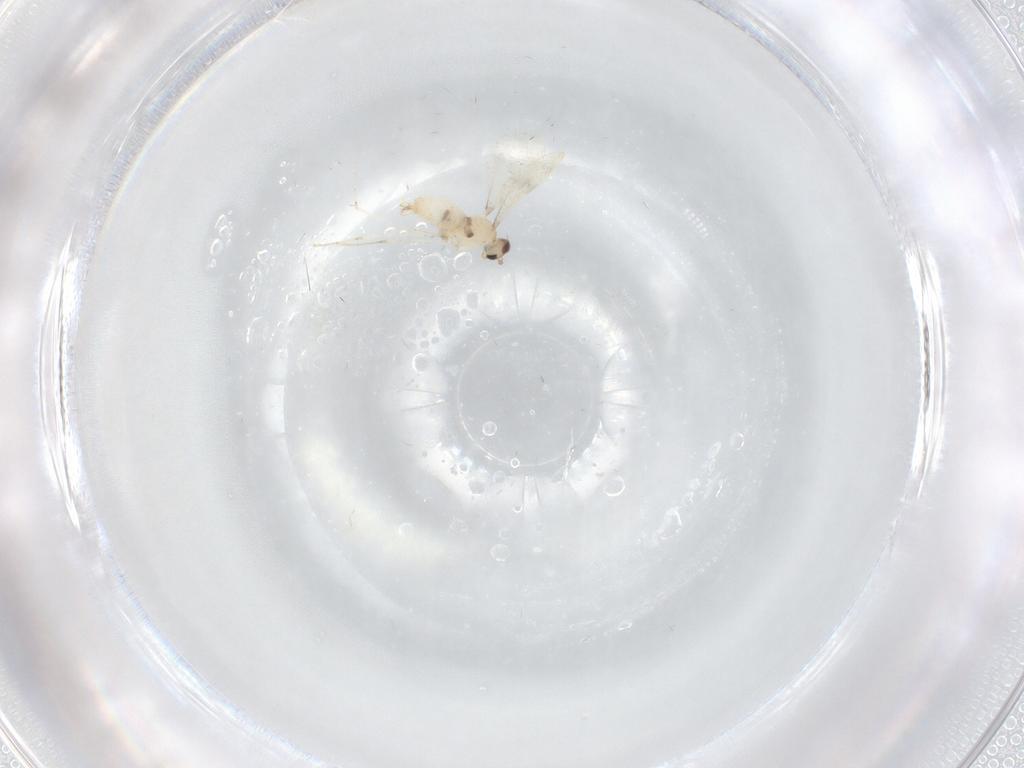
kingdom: Animalia
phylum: Arthropoda
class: Insecta
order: Diptera
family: Cecidomyiidae
